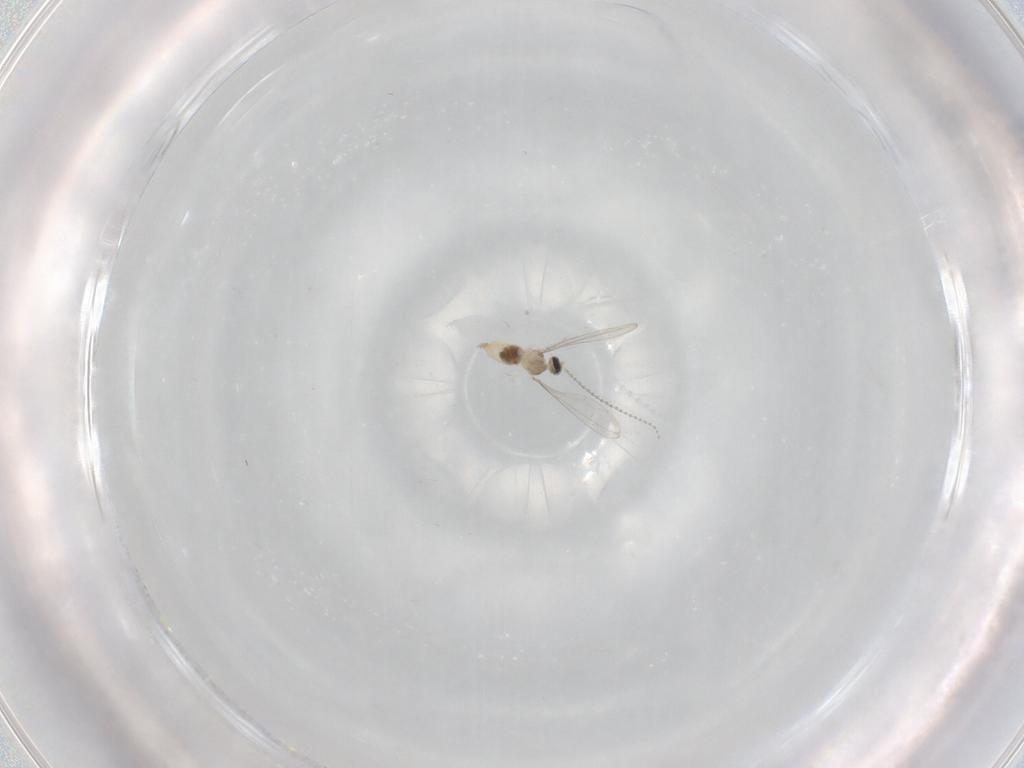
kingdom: Animalia
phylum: Arthropoda
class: Insecta
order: Diptera
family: Cecidomyiidae
